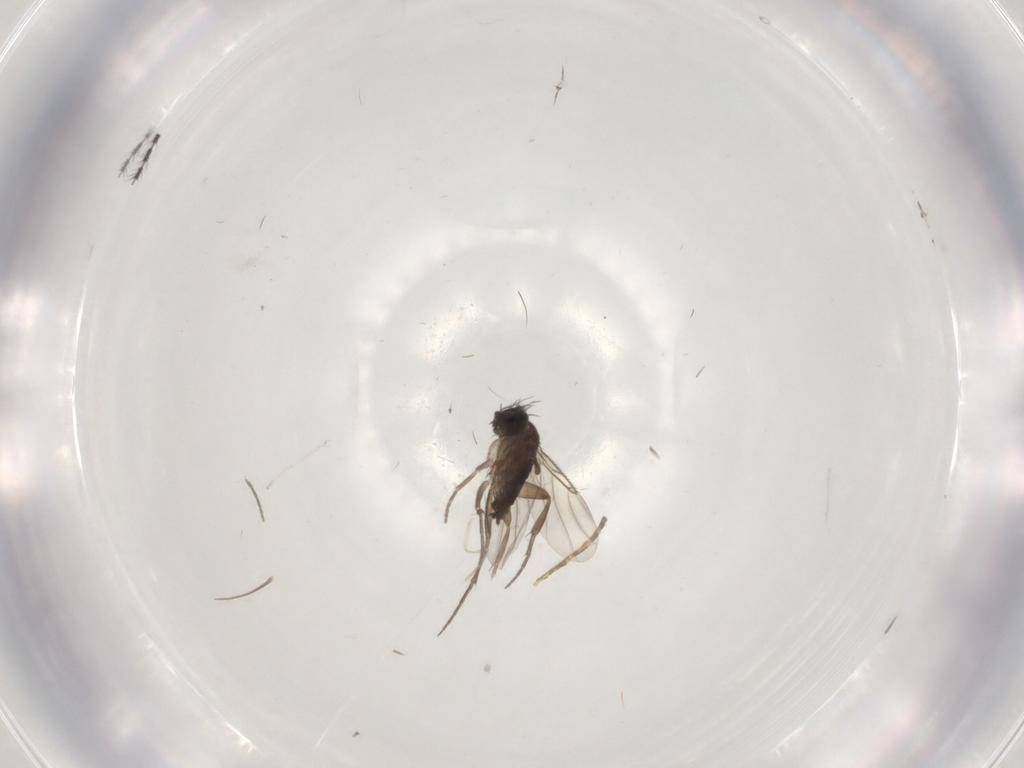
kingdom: Animalia
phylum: Arthropoda
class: Insecta
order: Diptera
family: Phoridae
